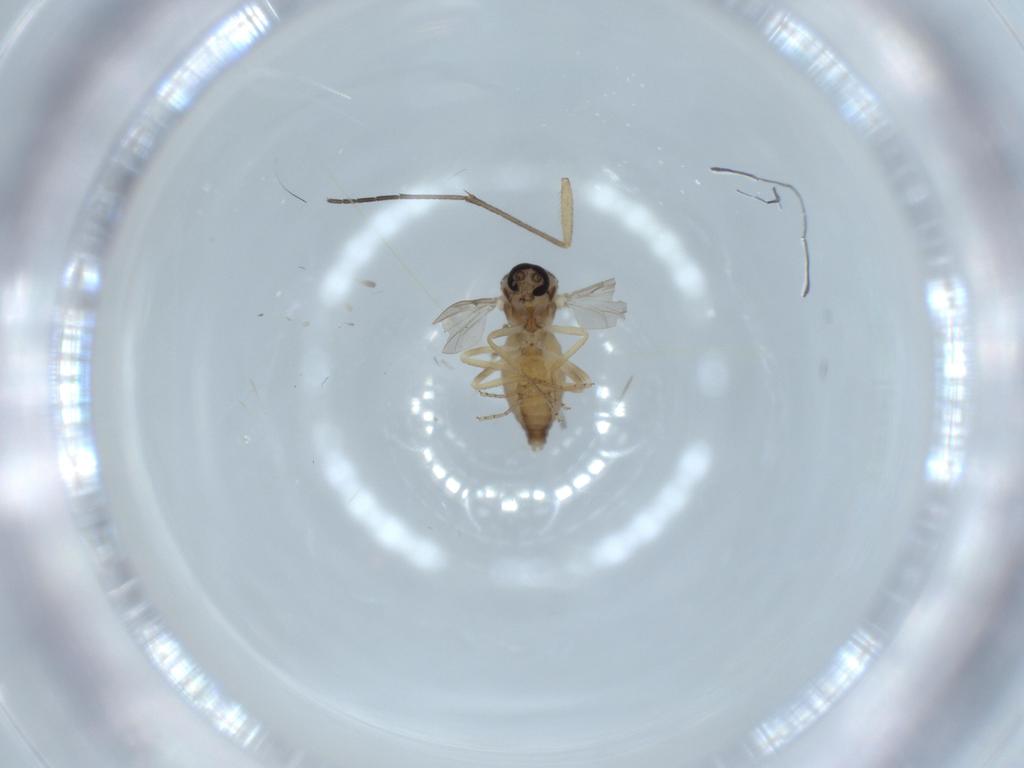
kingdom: Animalia
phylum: Arthropoda
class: Insecta
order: Diptera
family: Ceratopogonidae
